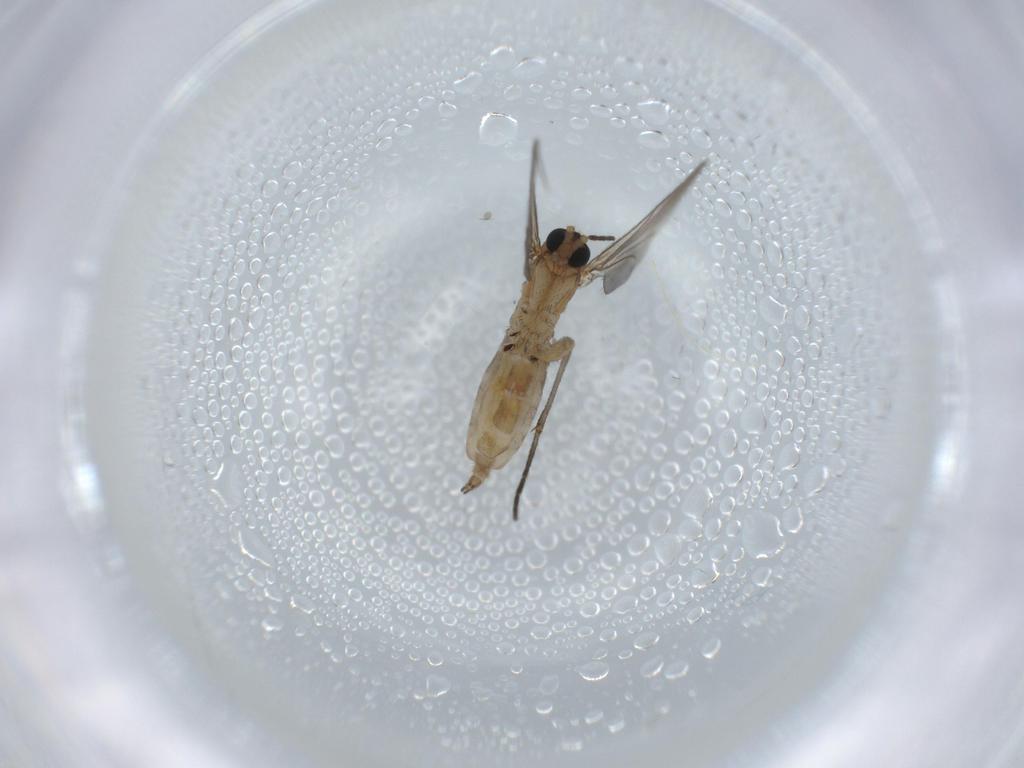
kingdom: Animalia
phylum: Arthropoda
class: Insecta
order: Diptera
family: Sciaridae
